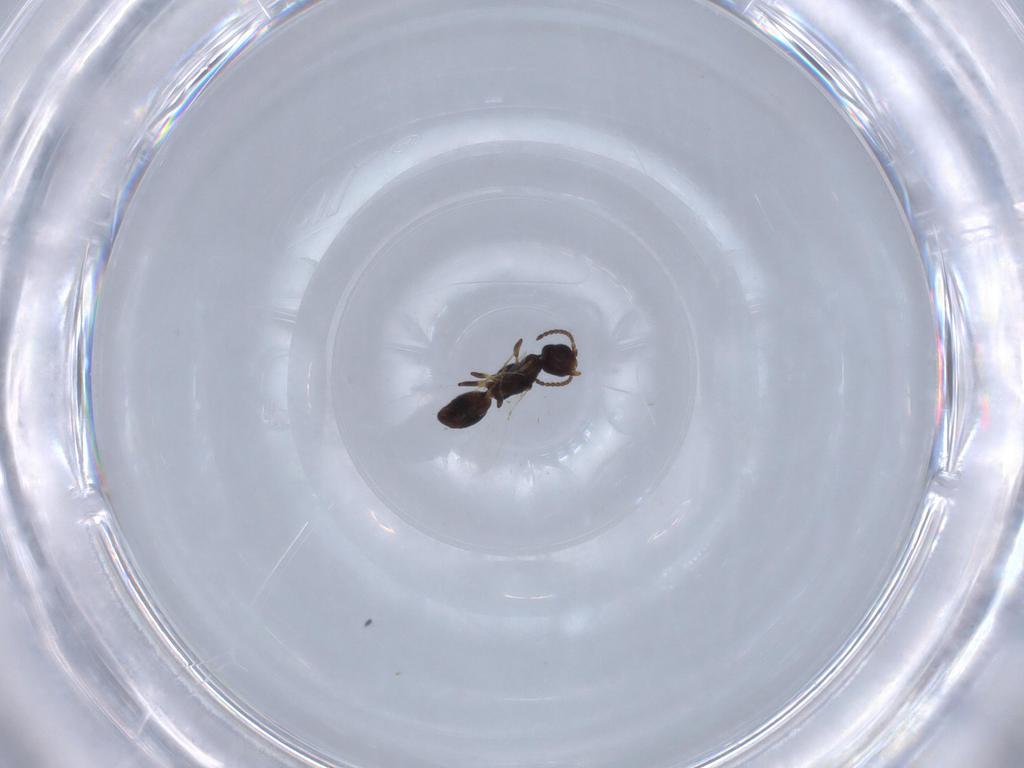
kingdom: Animalia
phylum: Arthropoda
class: Insecta
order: Hymenoptera
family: Bethylidae
